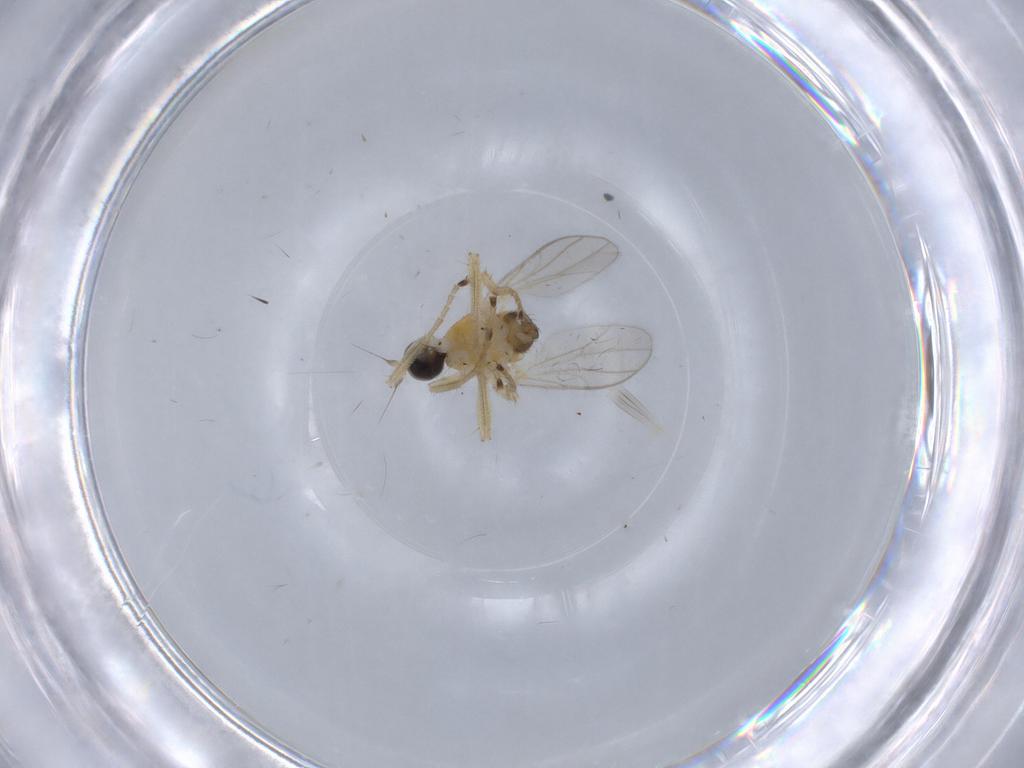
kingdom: Animalia
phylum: Arthropoda
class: Insecta
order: Diptera
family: Hybotidae
